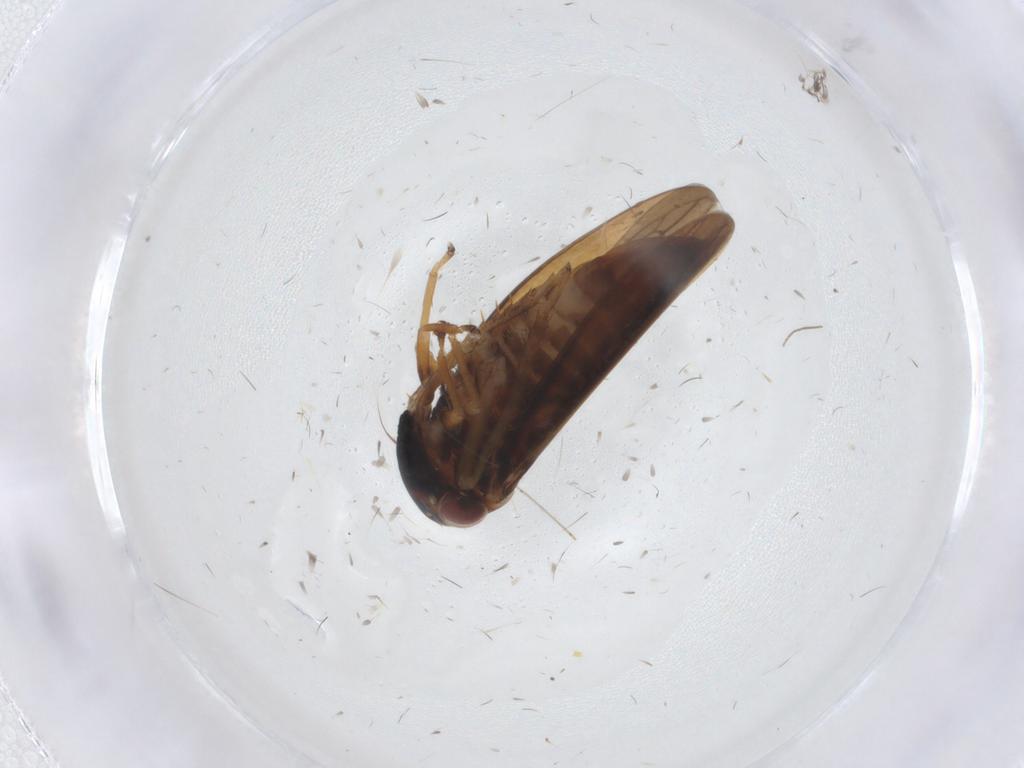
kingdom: Animalia
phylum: Arthropoda
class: Insecta
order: Hemiptera
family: Cicadellidae
